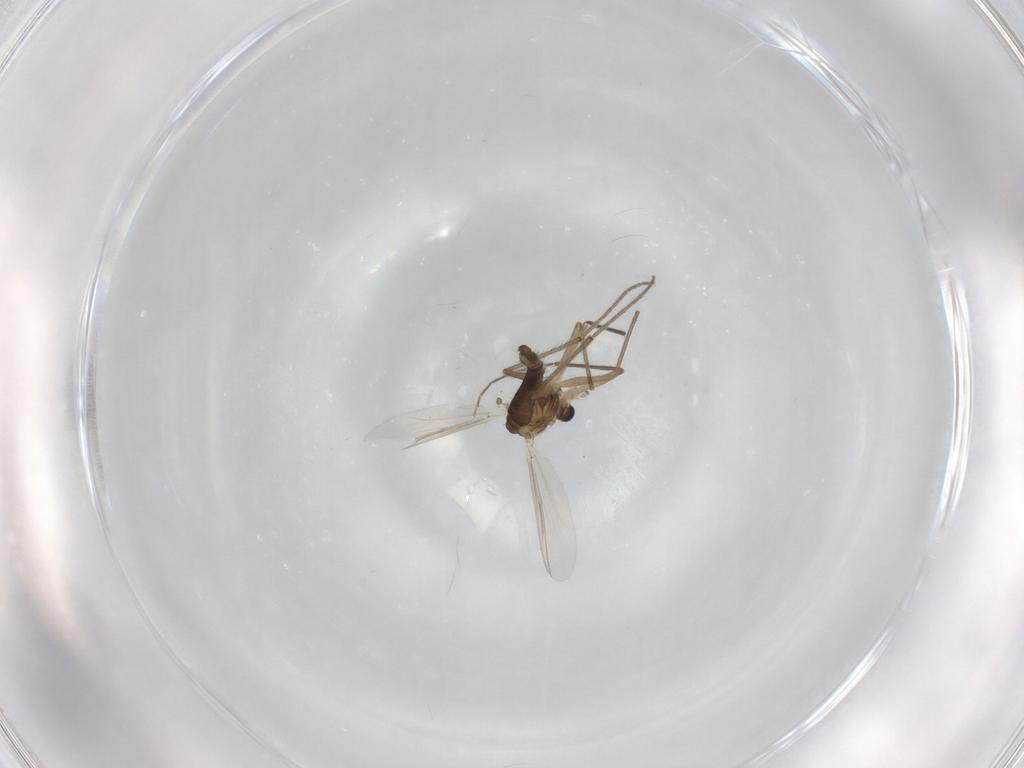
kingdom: Animalia
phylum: Arthropoda
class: Insecta
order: Diptera
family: Chironomidae
